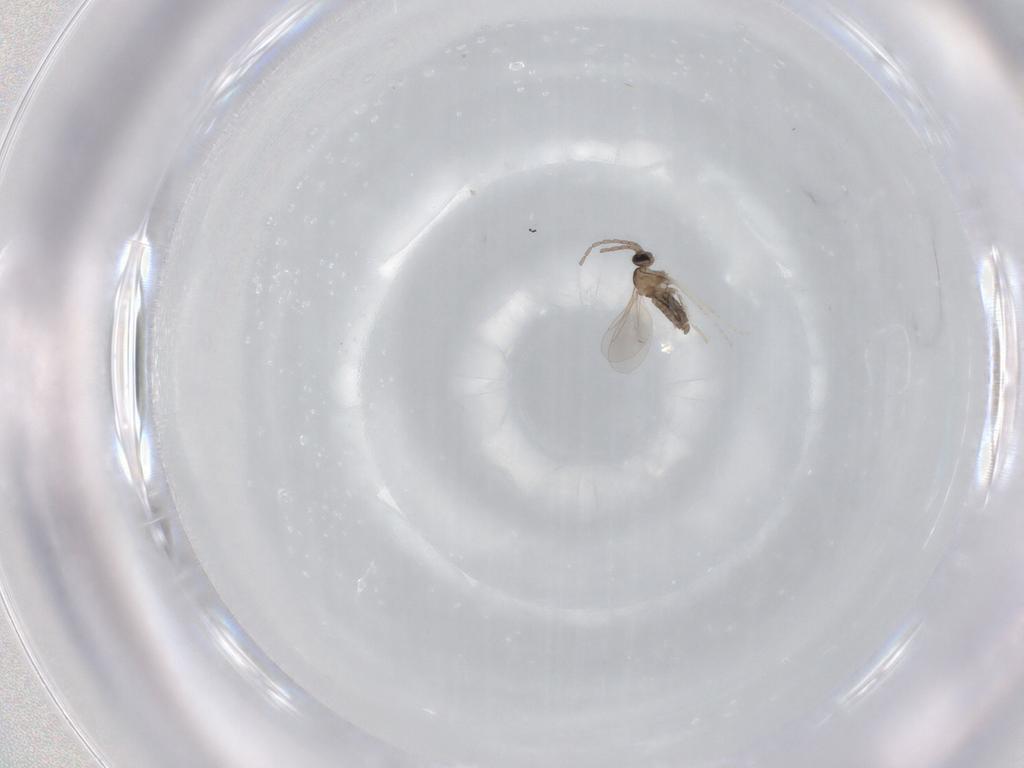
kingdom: Animalia
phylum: Arthropoda
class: Insecta
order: Diptera
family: Cecidomyiidae
